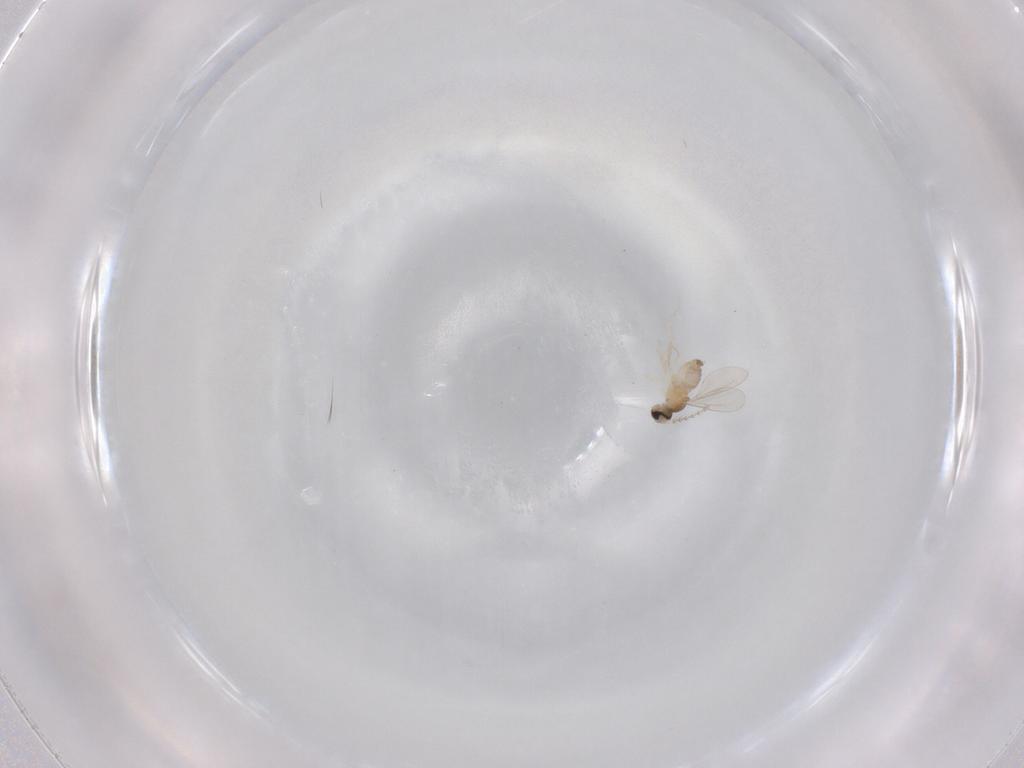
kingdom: Animalia
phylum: Arthropoda
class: Insecta
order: Diptera
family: Cecidomyiidae
